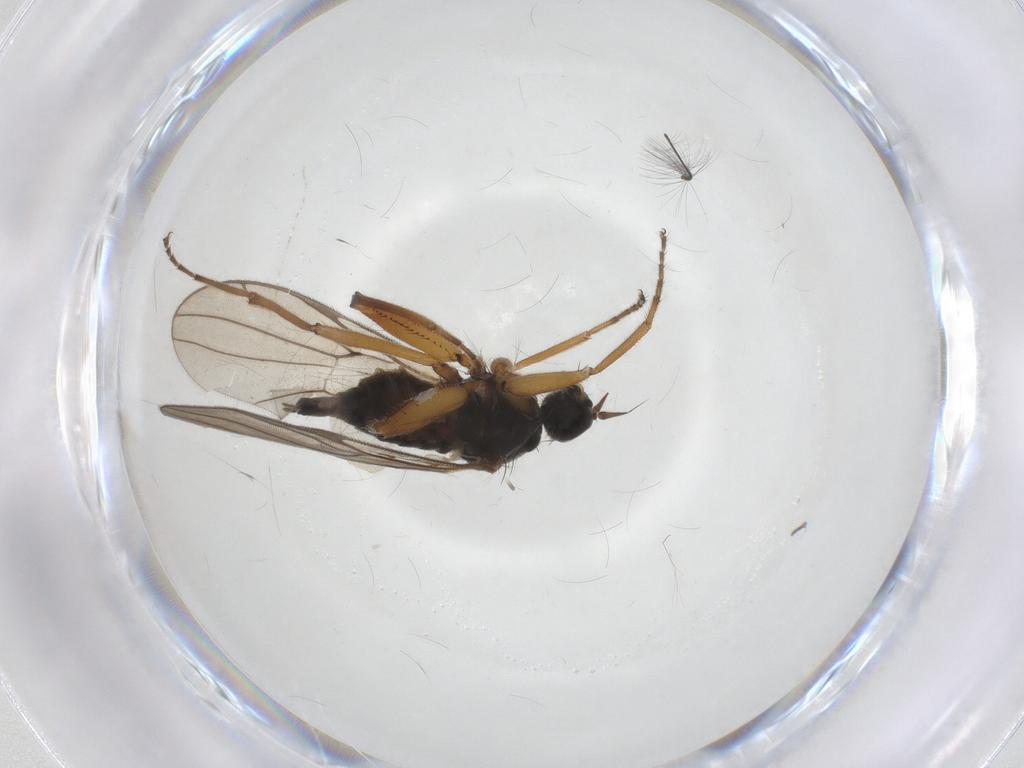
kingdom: Animalia
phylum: Arthropoda
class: Insecta
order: Diptera
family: Hybotidae
